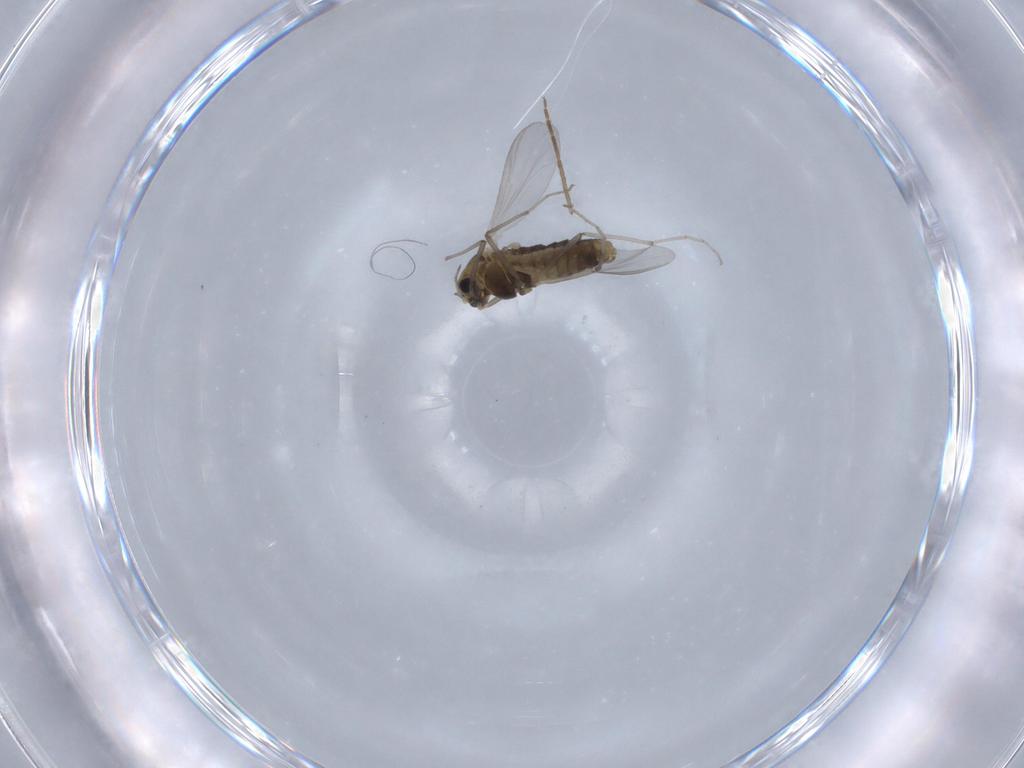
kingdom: Animalia
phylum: Arthropoda
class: Insecta
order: Diptera
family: Chironomidae
